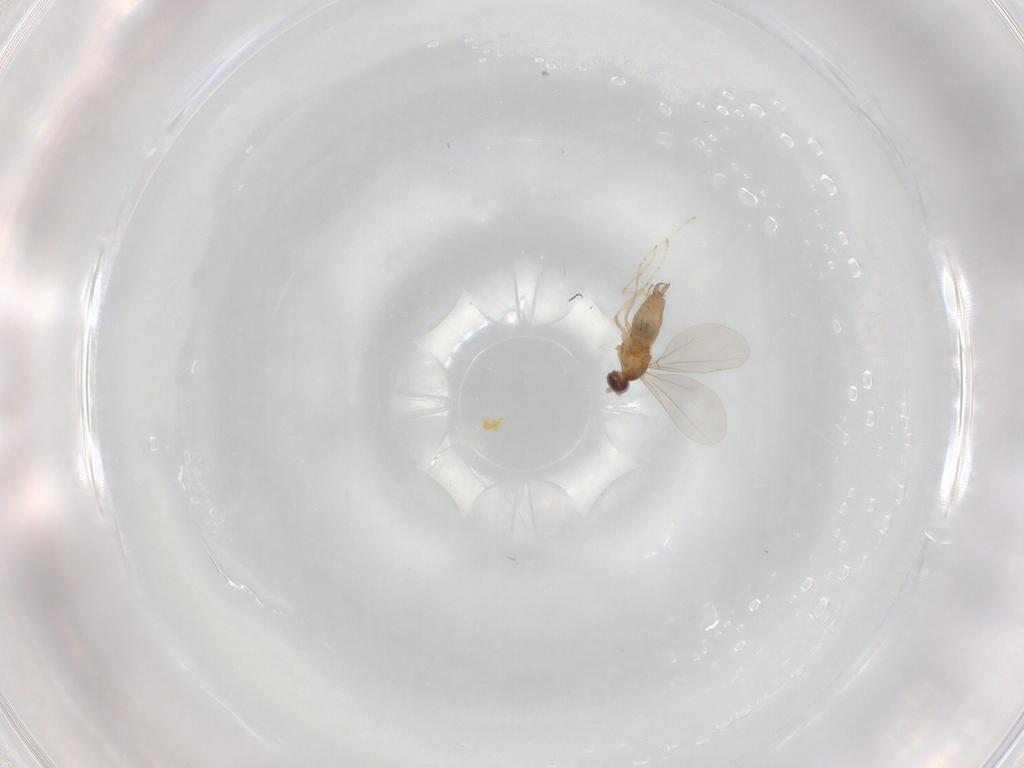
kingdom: Animalia
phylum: Arthropoda
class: Insecta
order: Diptera
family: Cecidomyiidae
